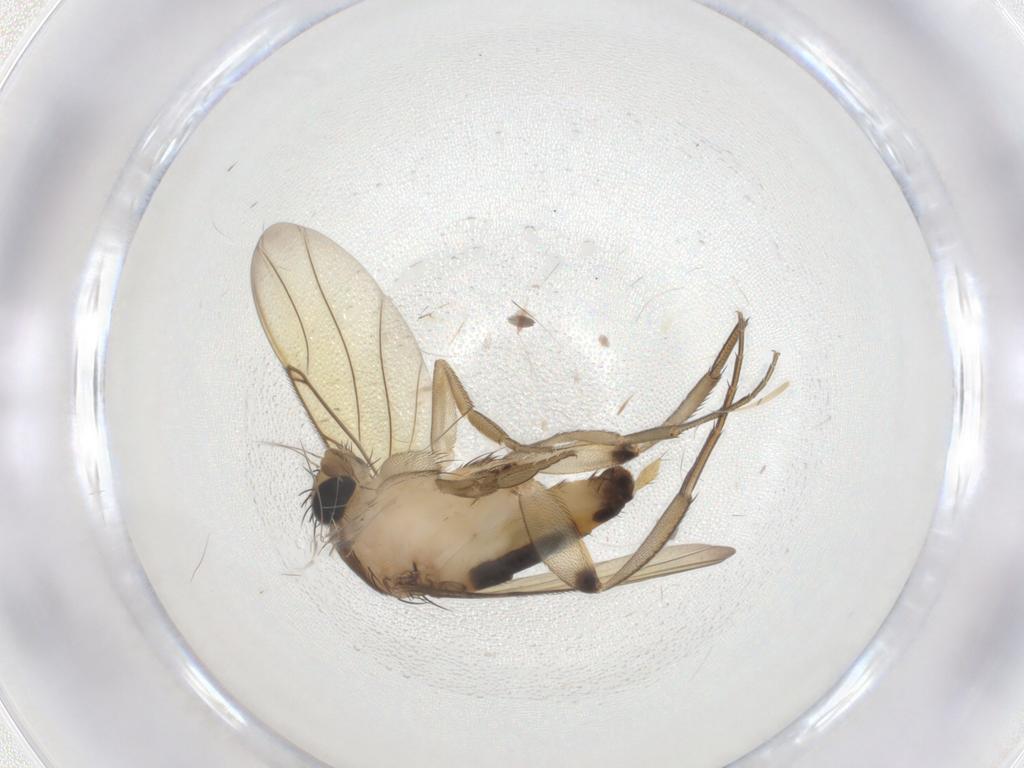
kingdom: Animalia
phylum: Arthropoda
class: Insecta
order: Diptera
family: Phoridae
